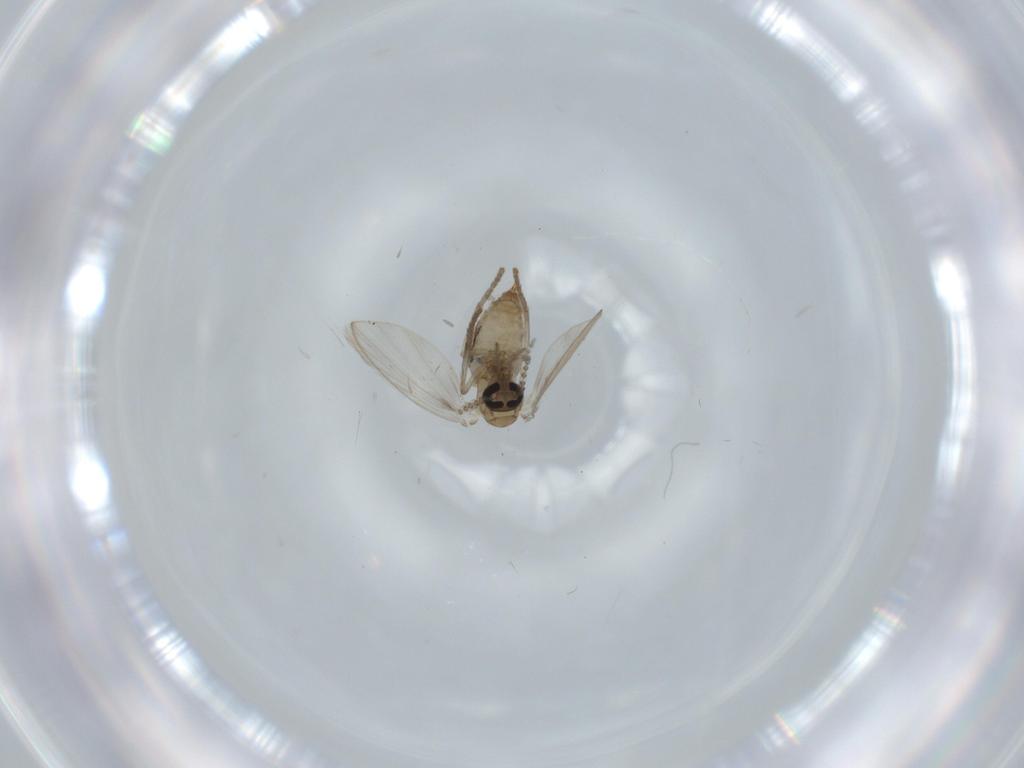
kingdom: Animalia
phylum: Arthropoda
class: Insecta
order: Diptera
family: Psychodidae
